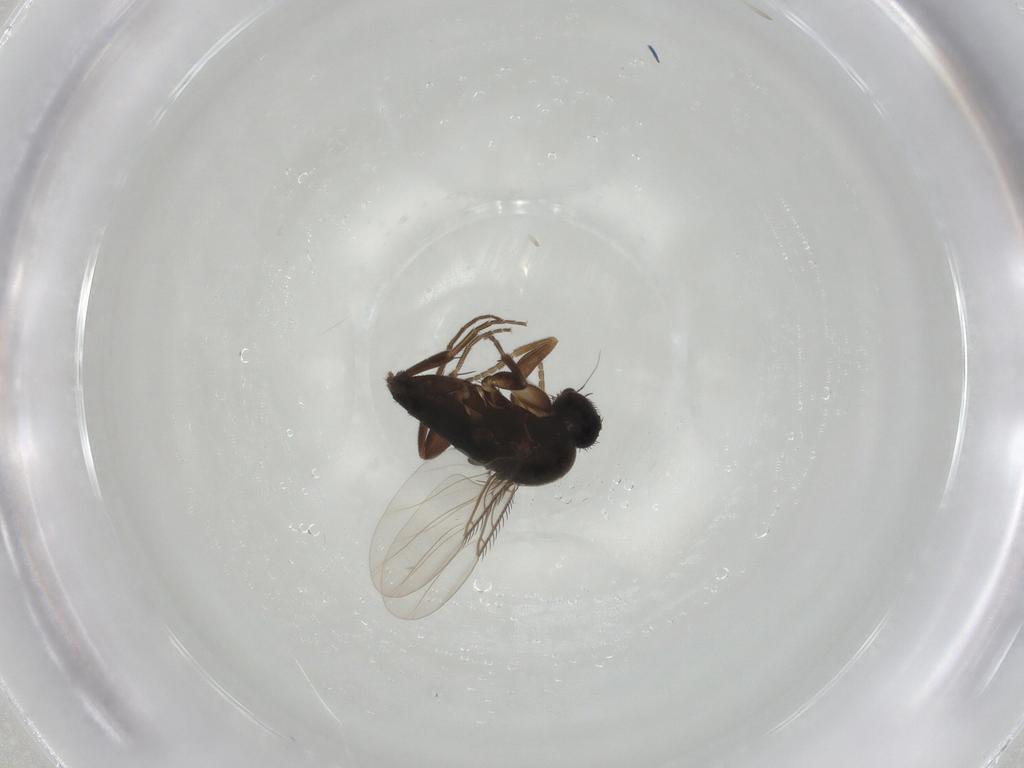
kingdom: Animalia
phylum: Arthropoda
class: Insecta
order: Diptera
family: Phoridae
